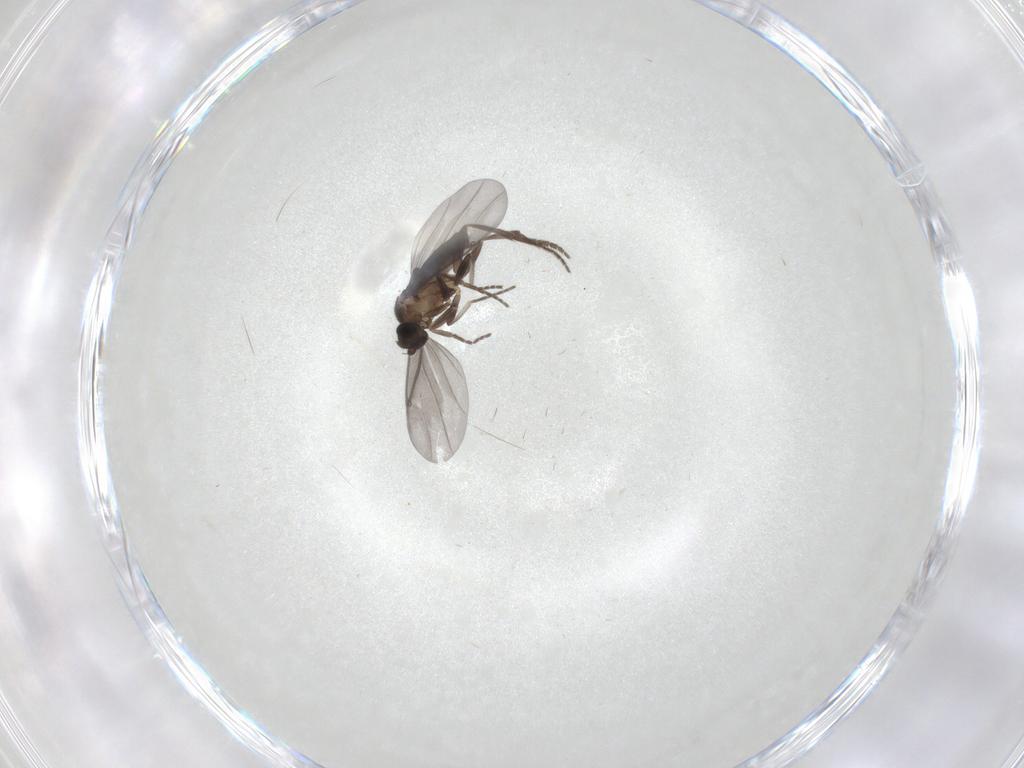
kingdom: Animalia
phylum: Arthropoda
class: Insecta
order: Diptera
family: Phoridae
